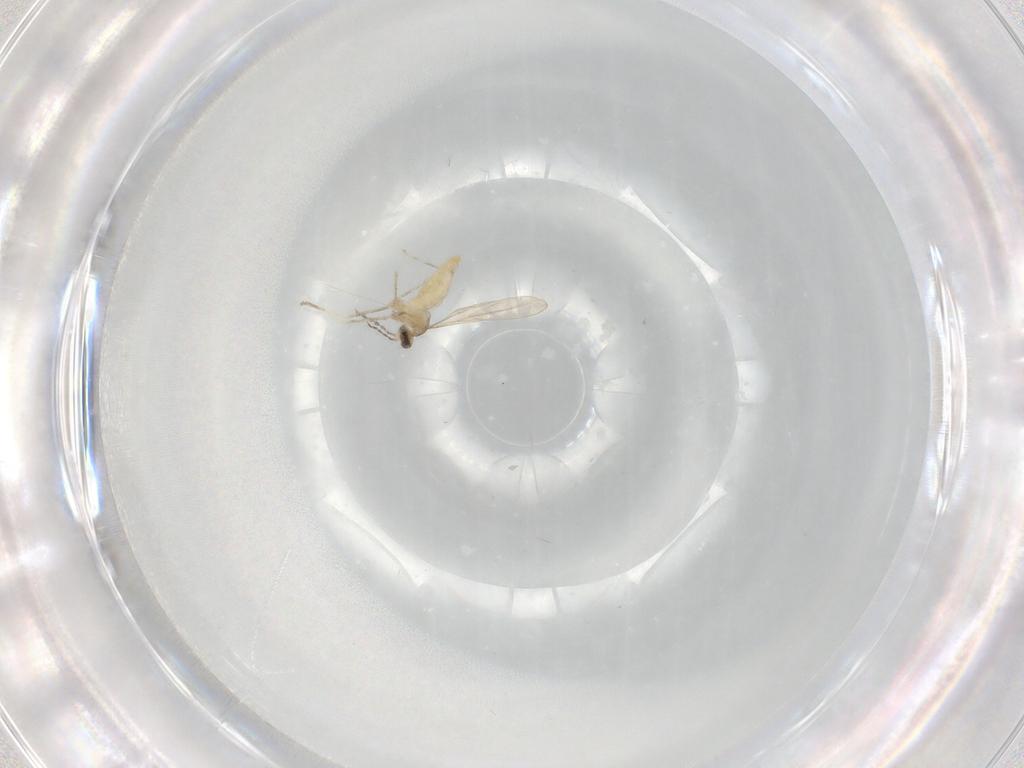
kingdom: Animalia
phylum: Arthropoda
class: Insecta
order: Diptera
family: Cecidomyiidae
